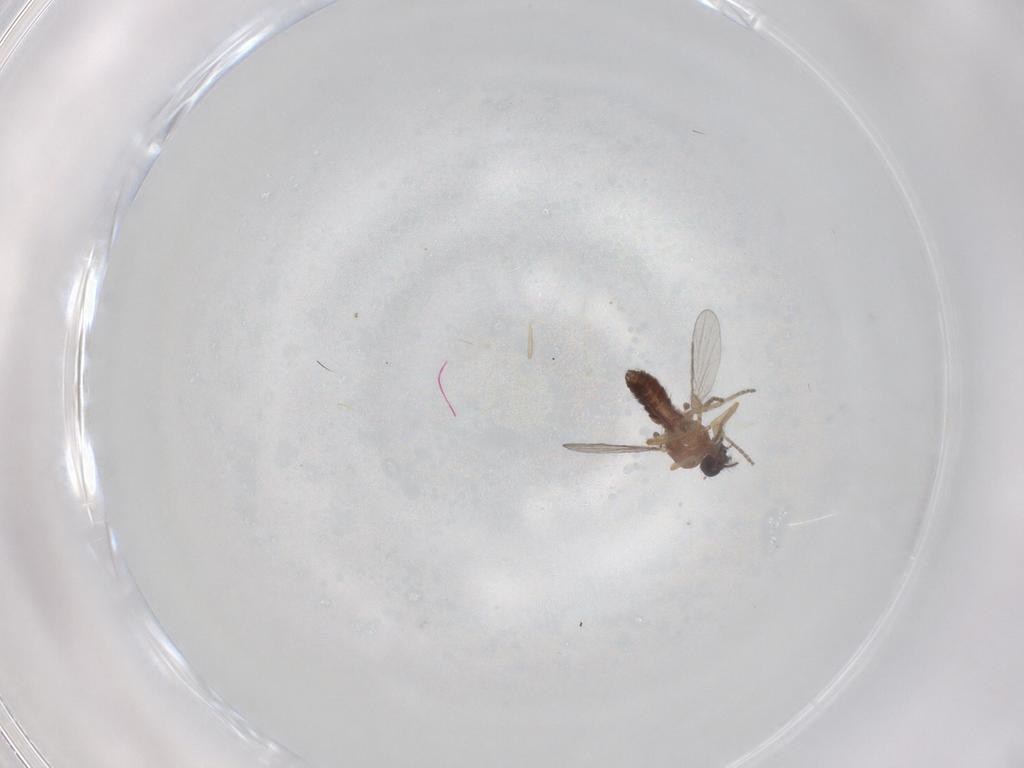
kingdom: Animalia
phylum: Arthropoda
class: Insecta
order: Diptera
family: Ceratopogonidae
